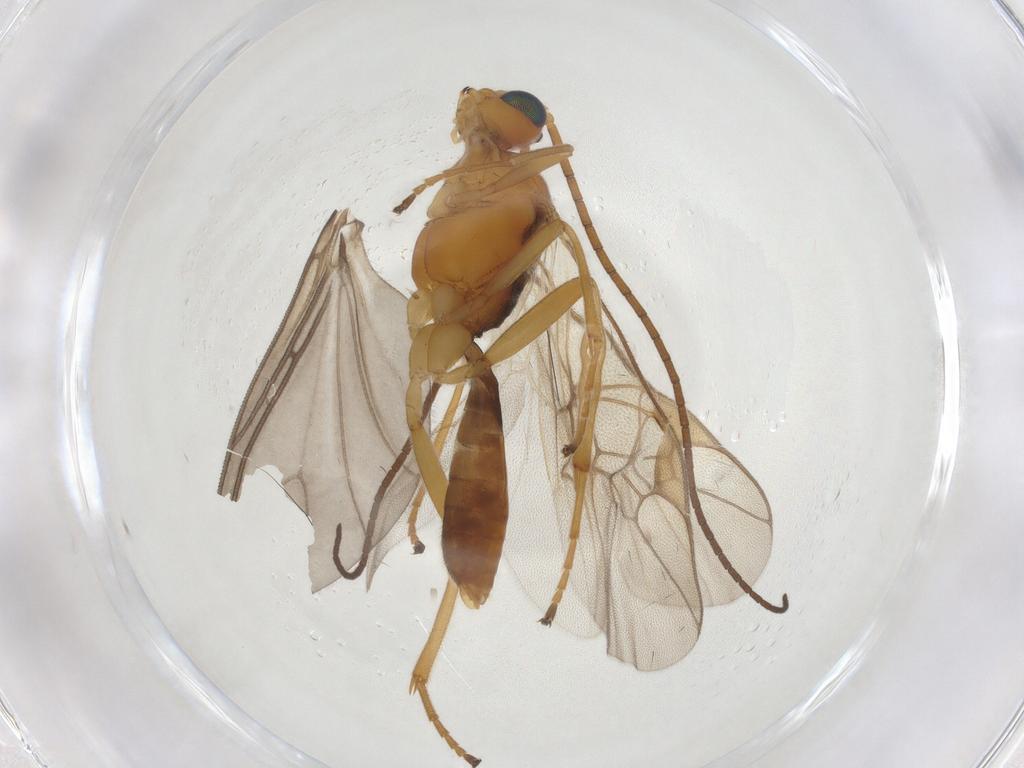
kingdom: Animalia
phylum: Arthropoda
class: Insecta
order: Hymenoptera
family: Braconidae
